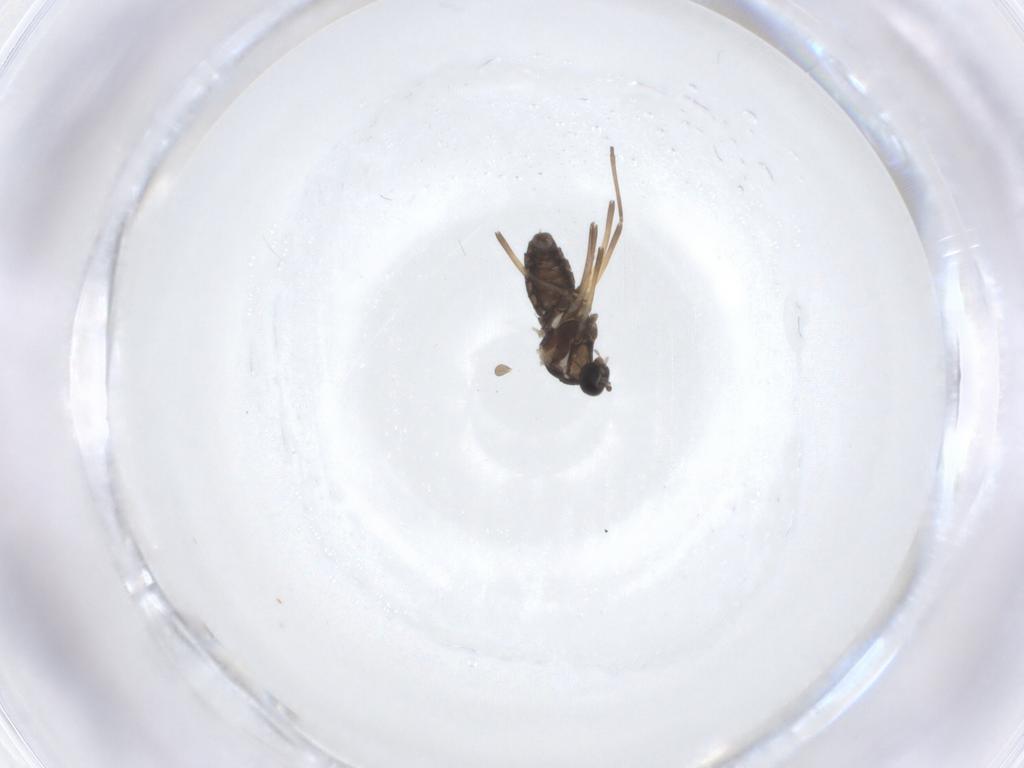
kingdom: Animalia
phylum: Arthropoda
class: Insecta
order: Diptera
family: Cecidomyiidae
